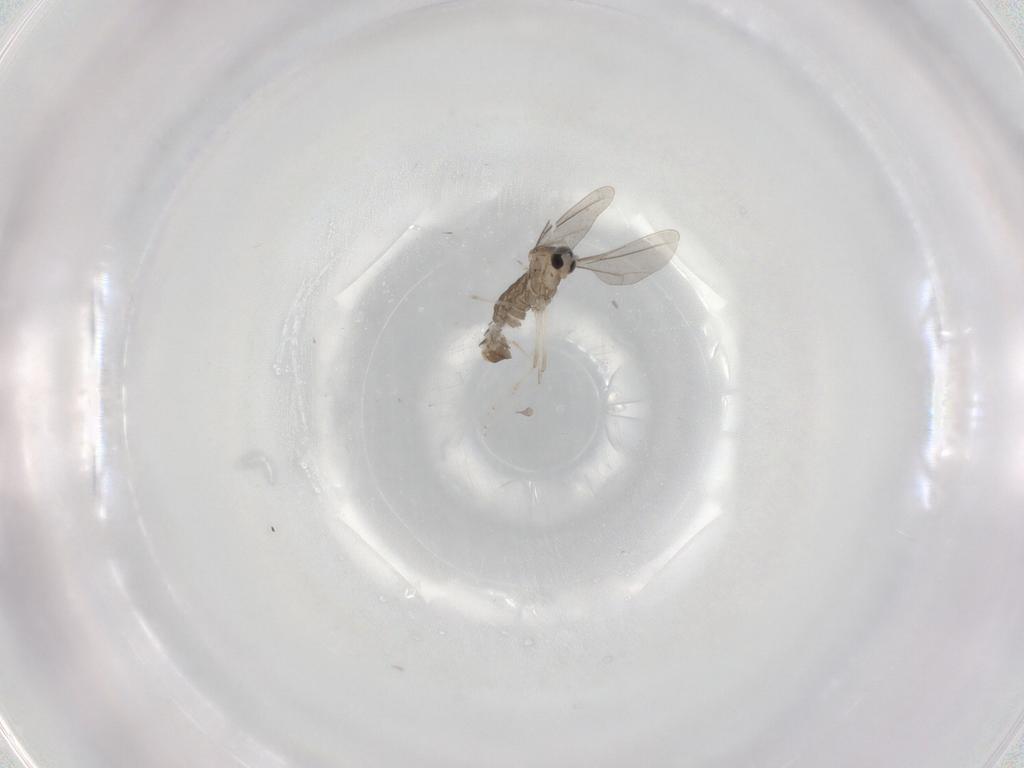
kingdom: Animalia
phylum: Arthropoda
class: Insecta
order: Diptera
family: Cecidomyiidae
